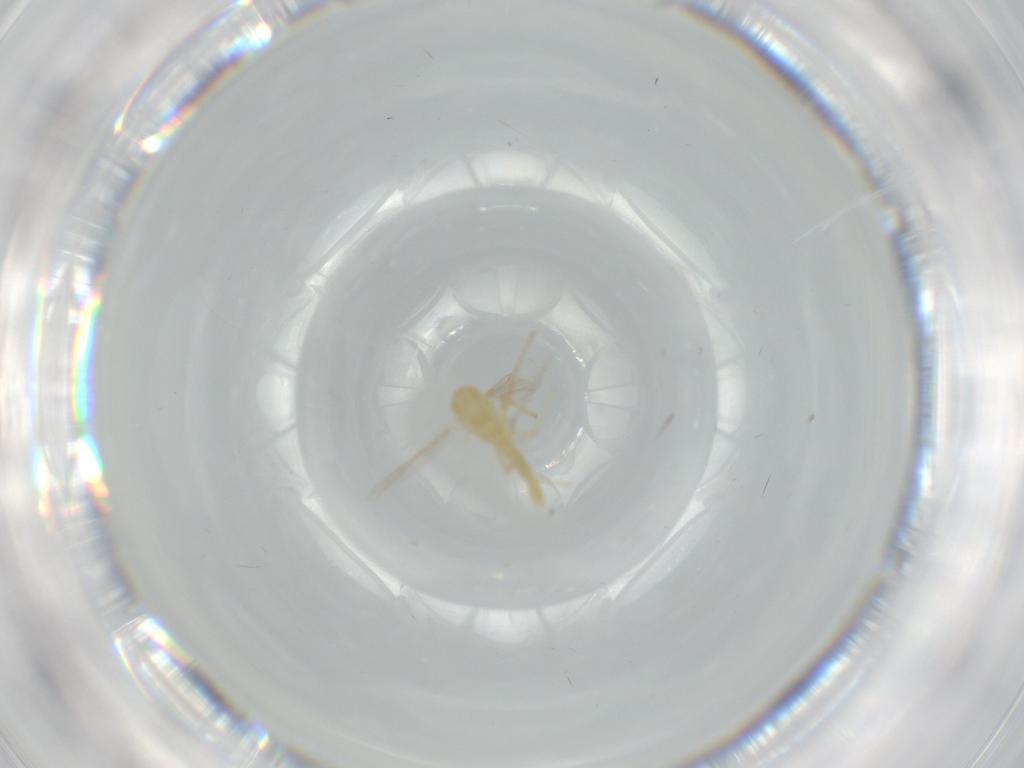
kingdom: Animalia
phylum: Arthropoda
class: Insecta
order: Diptera
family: Chironomidae
